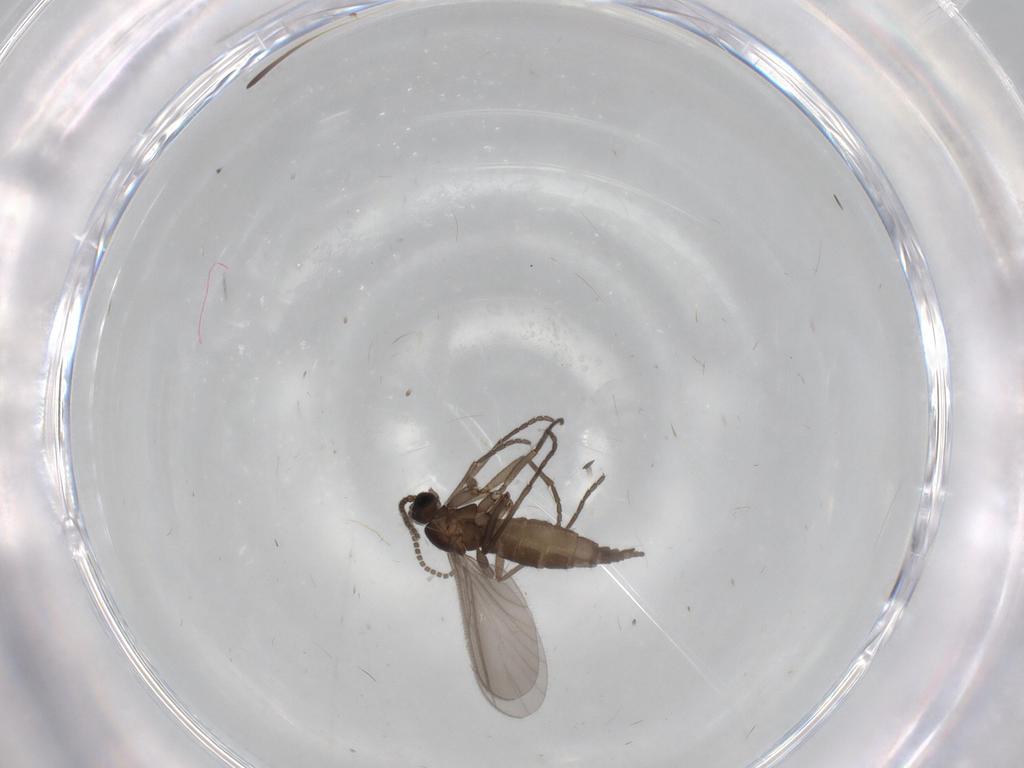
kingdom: Animalia
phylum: Arthropoda
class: Insecta
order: Diptera
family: Sciaridae
